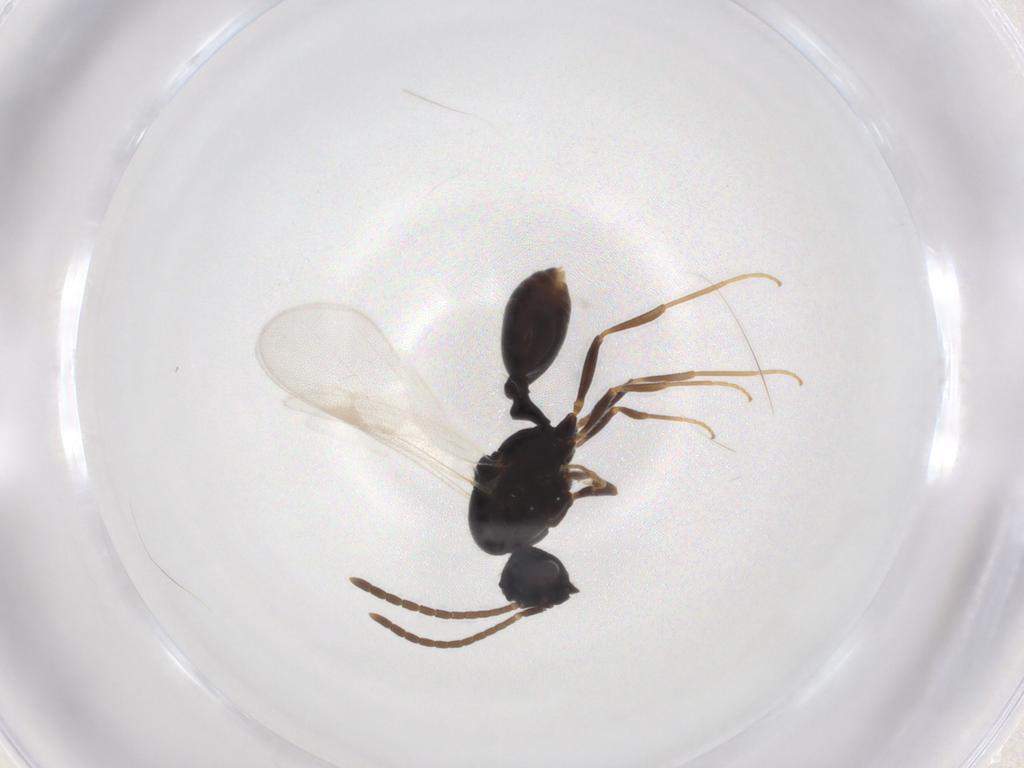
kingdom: Animalia
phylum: Arthropoda
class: Insecta
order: Hymenoptera
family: Formicidae
